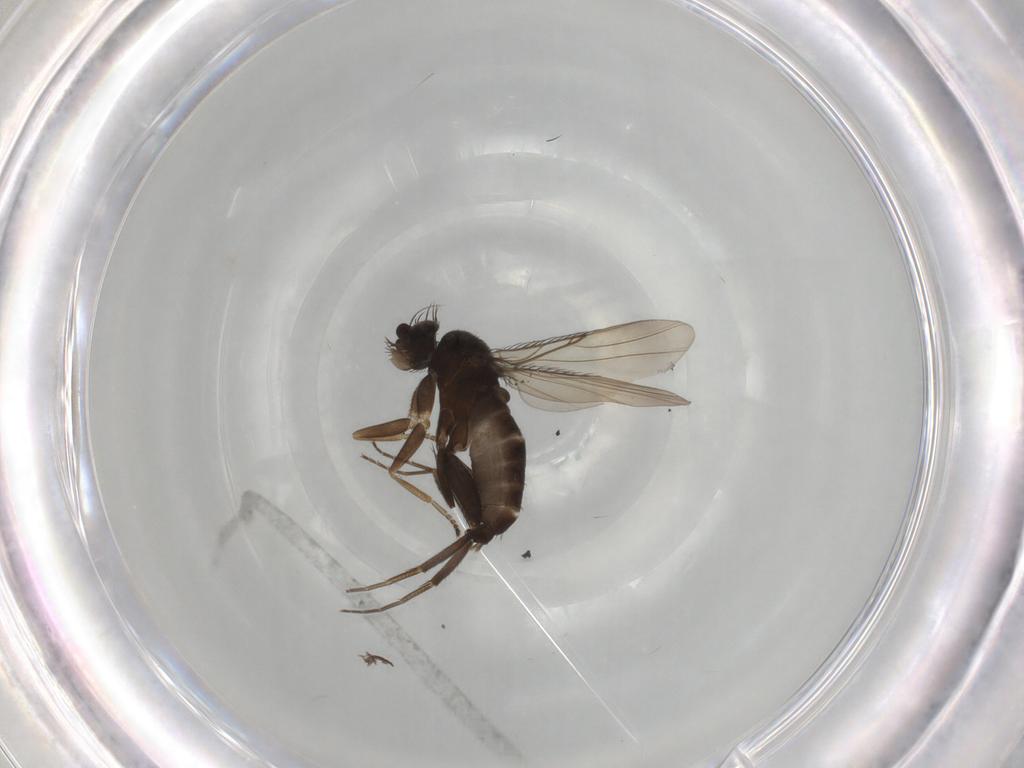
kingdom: Animalia
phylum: Arthropoda
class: Insecta
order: Diptera
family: Phoridae
